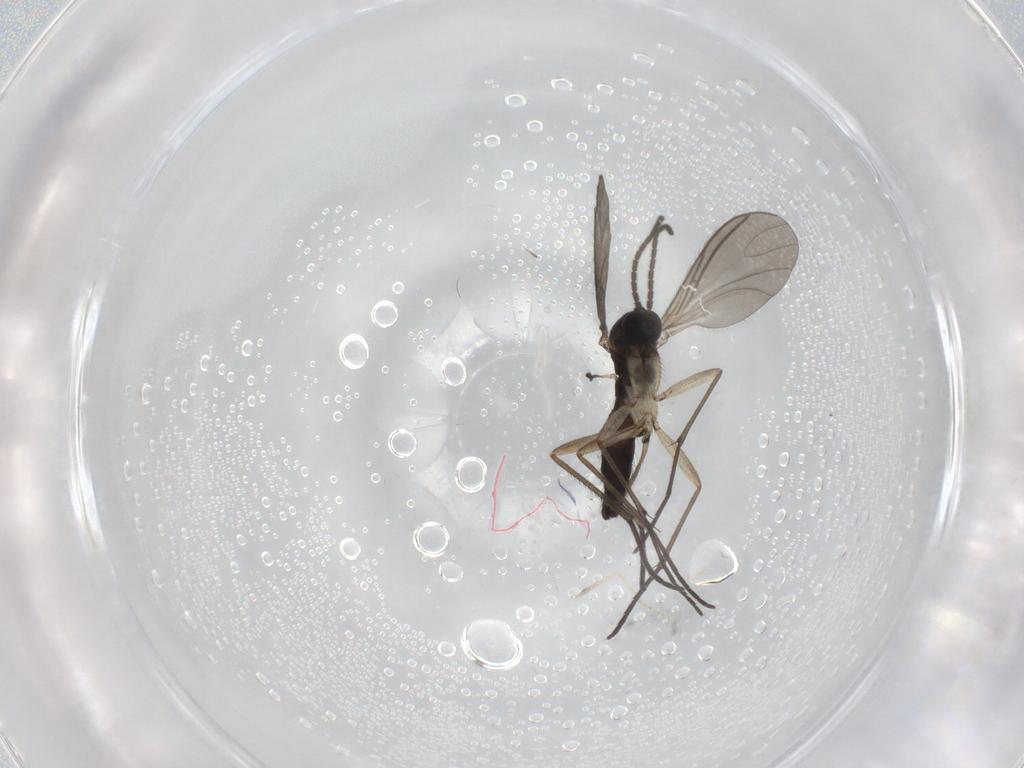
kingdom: Animalia
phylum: Arthropoda
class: Insecta
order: Diptera
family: Sciaridae
